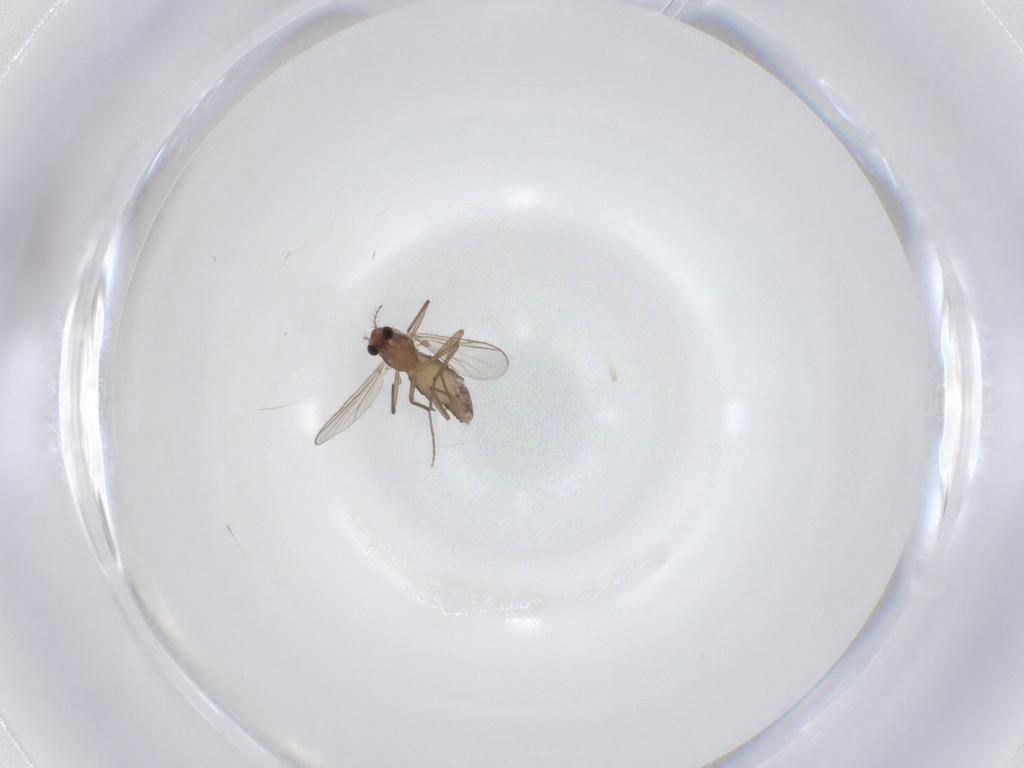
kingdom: Animalia
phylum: Arthropoda
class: Insecta
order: Diptera
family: Chironomidae
